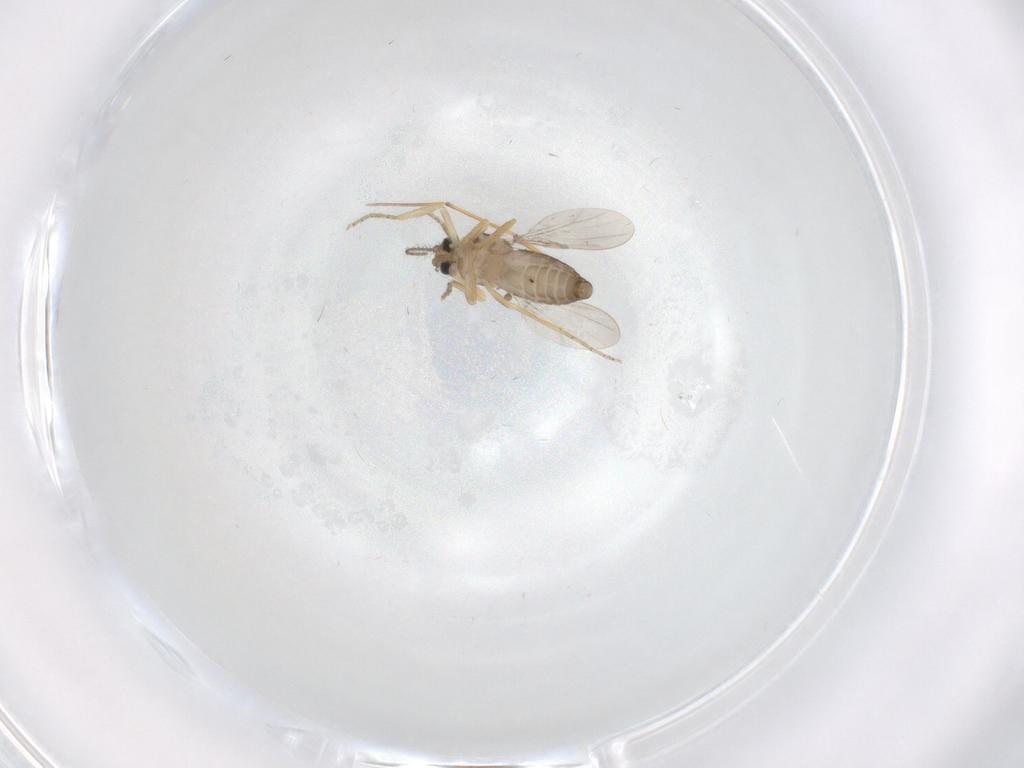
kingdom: Animalia
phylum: Arthropoda
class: Insecta
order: Diptera
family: Ceratopogonidae
